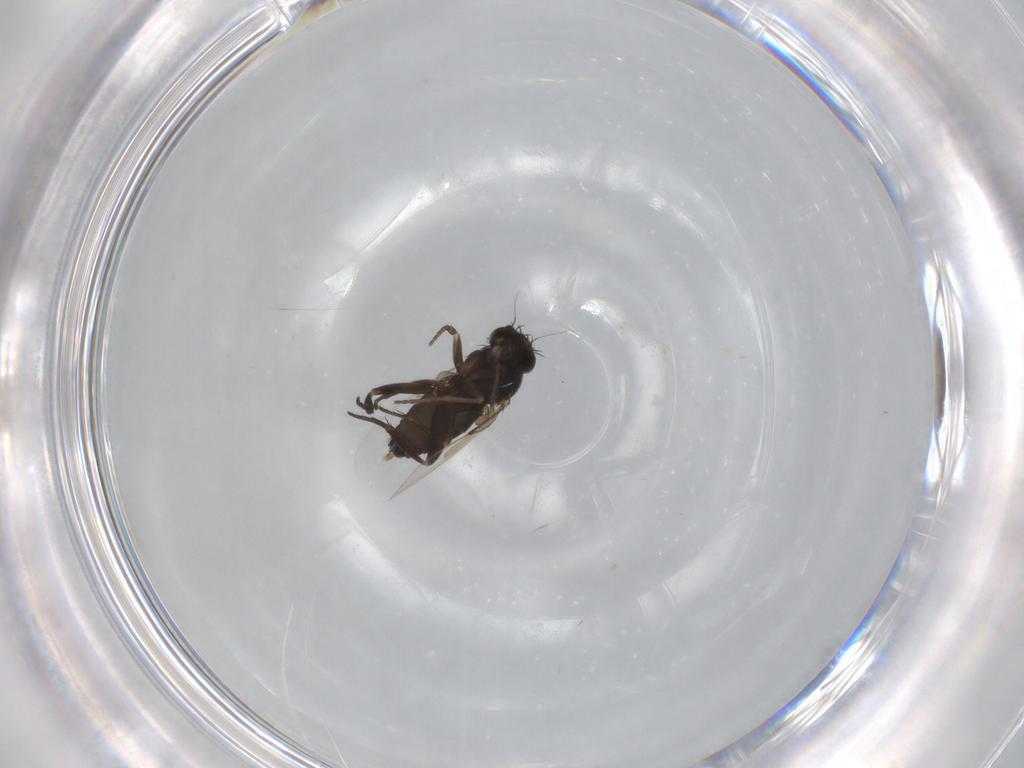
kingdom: Animalia
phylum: Arthropoda
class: Insecta
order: Diptera
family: Phoridae
